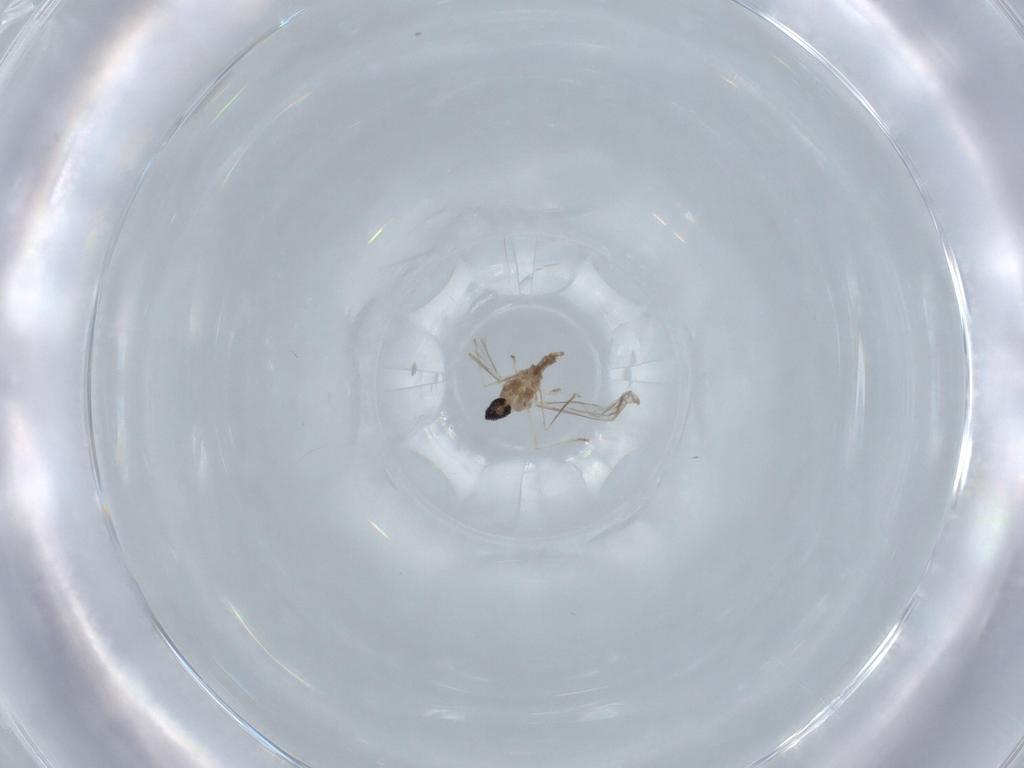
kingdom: Animalia
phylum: Arthropoda
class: Insecta
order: Diptera
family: Cecidomyiidae
